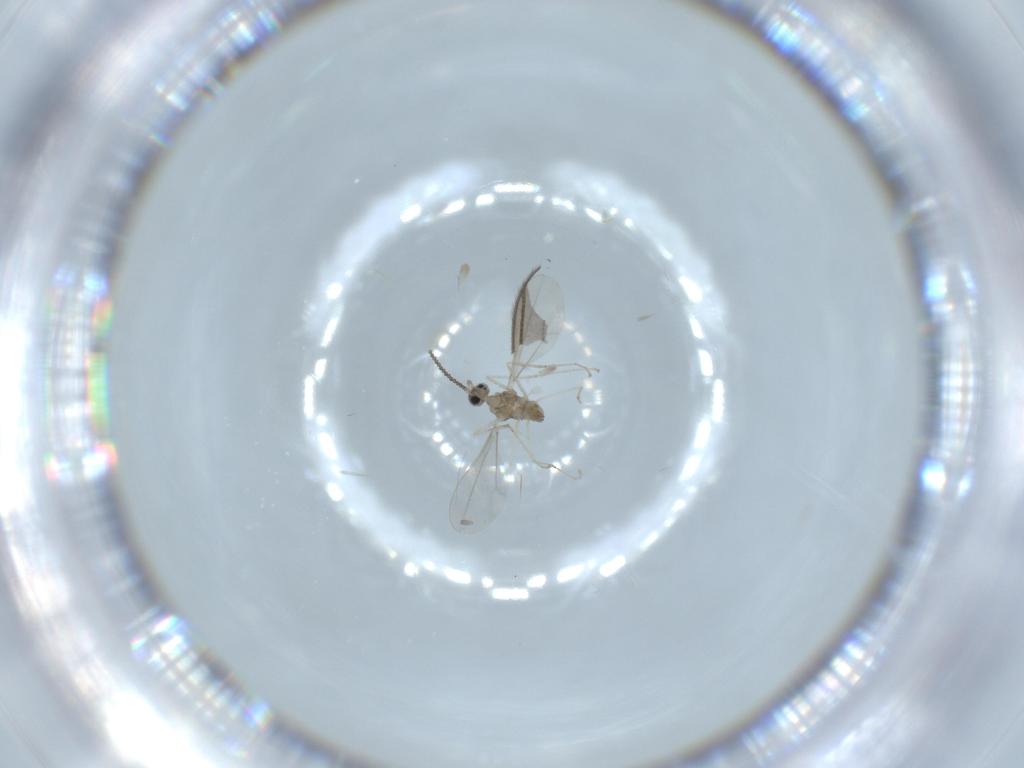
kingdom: Animalia
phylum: Arthropoda
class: Insecta
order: Diptera
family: Sciaridae
